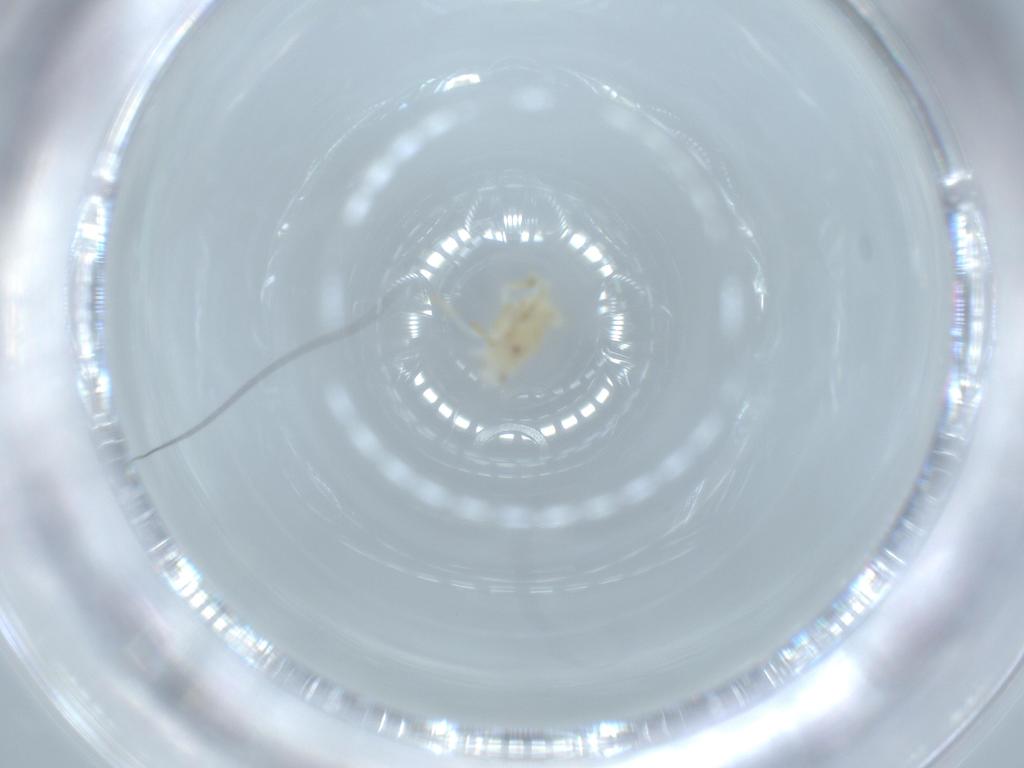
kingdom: Animalia
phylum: Arthropoda
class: Insecta
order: Hemiptera
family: Flatidae
